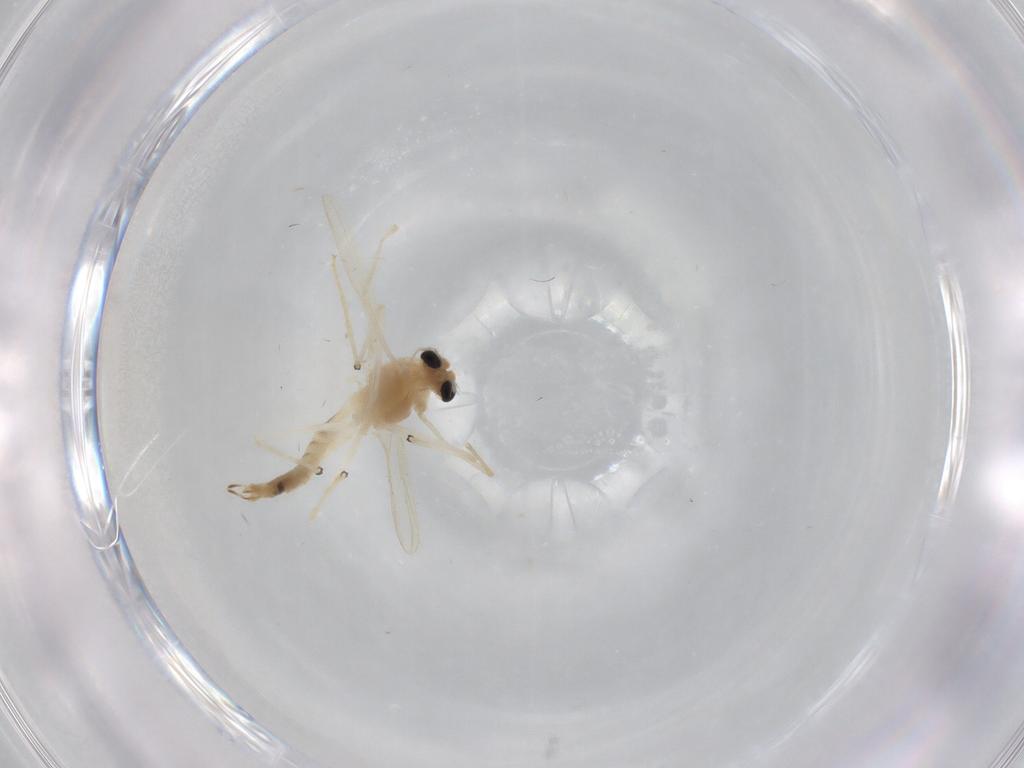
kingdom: Animalia
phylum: Arthropoda
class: Insecta
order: Diptera
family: Chironomidae
